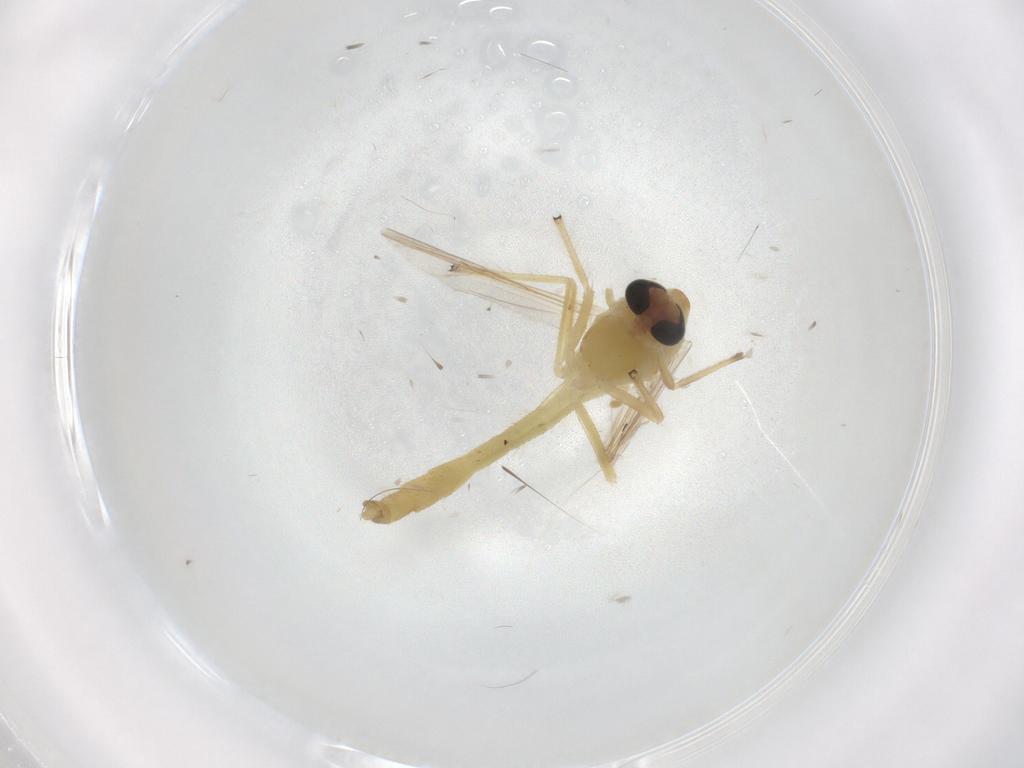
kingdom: Animalia
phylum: Arthropoda
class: Insecta
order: Diptera
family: Chironomidae
